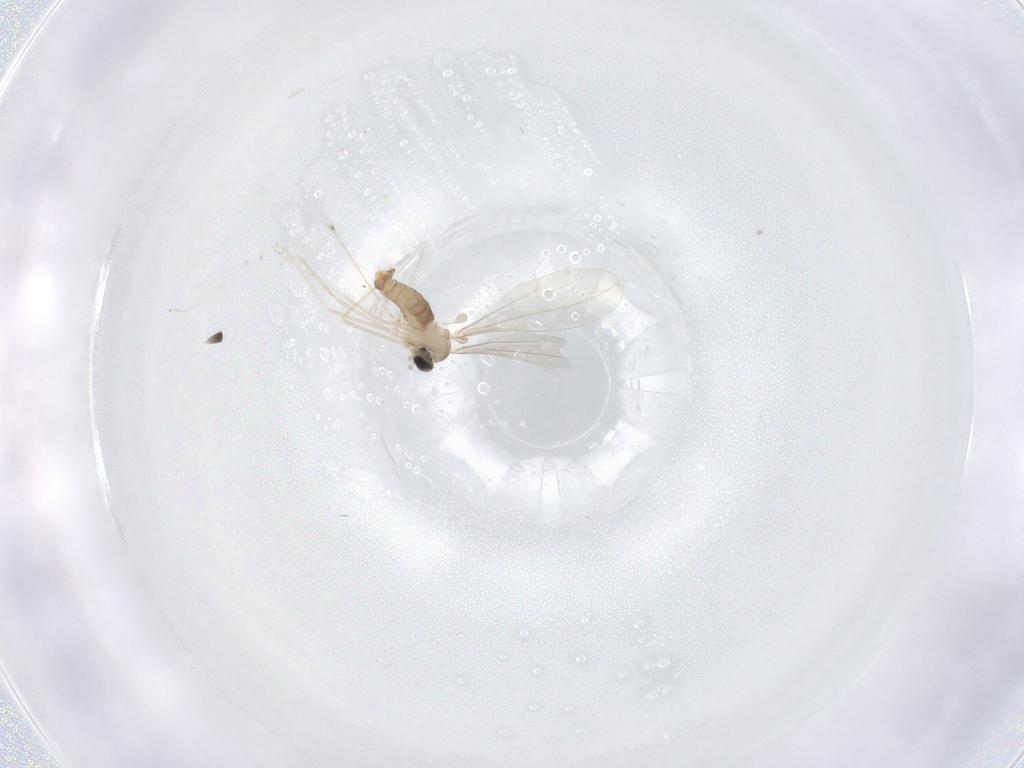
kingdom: Animalia
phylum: Arthropoda
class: Insecta
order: Diptera
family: Cecidomyiidae
